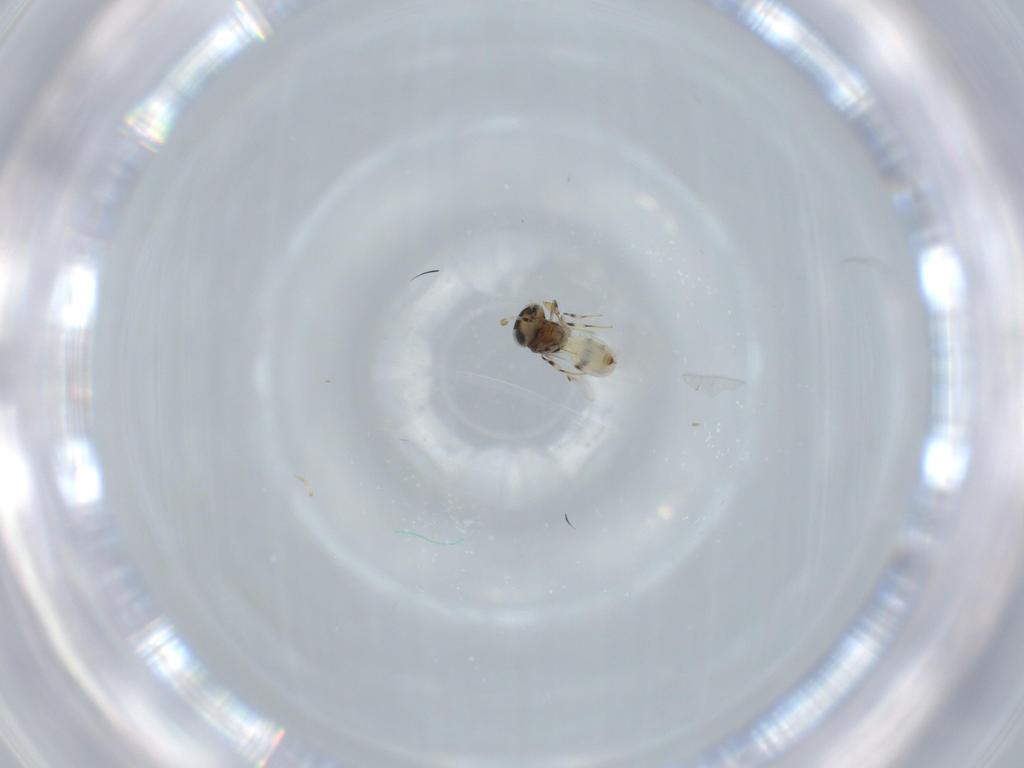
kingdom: Animalia
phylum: Arthropoda
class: Insecta
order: Hymenoptera
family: Scelionidae
